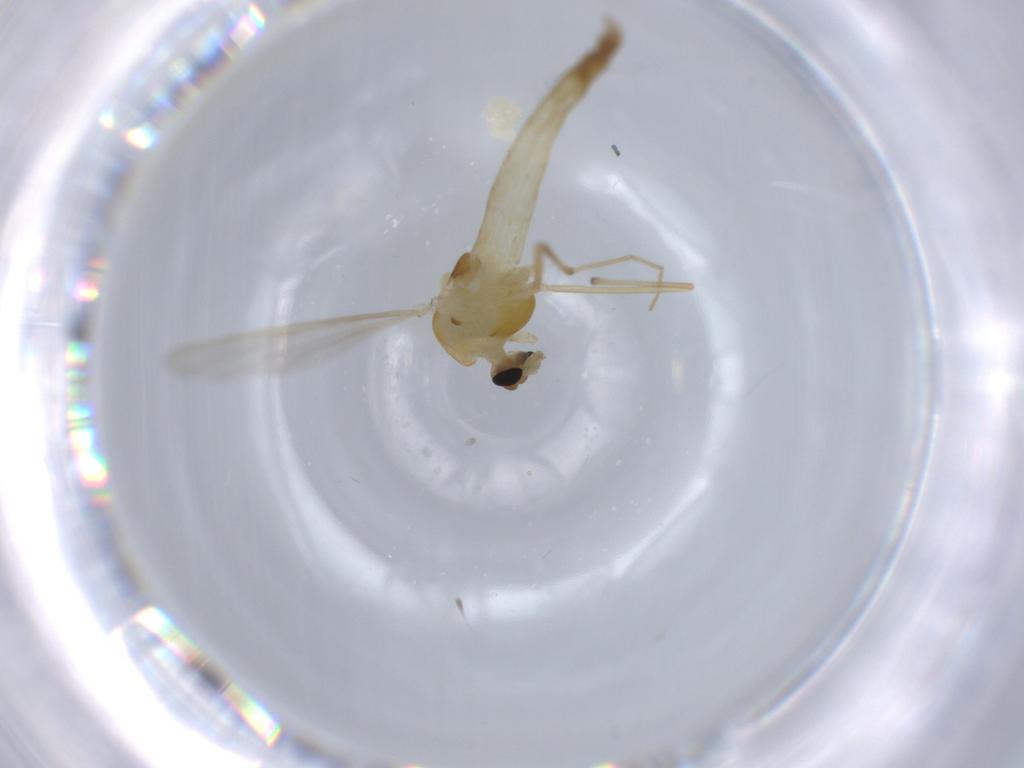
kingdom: Animalia
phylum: Arthropoda
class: Insecta
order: Diptera
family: Chironomidae
